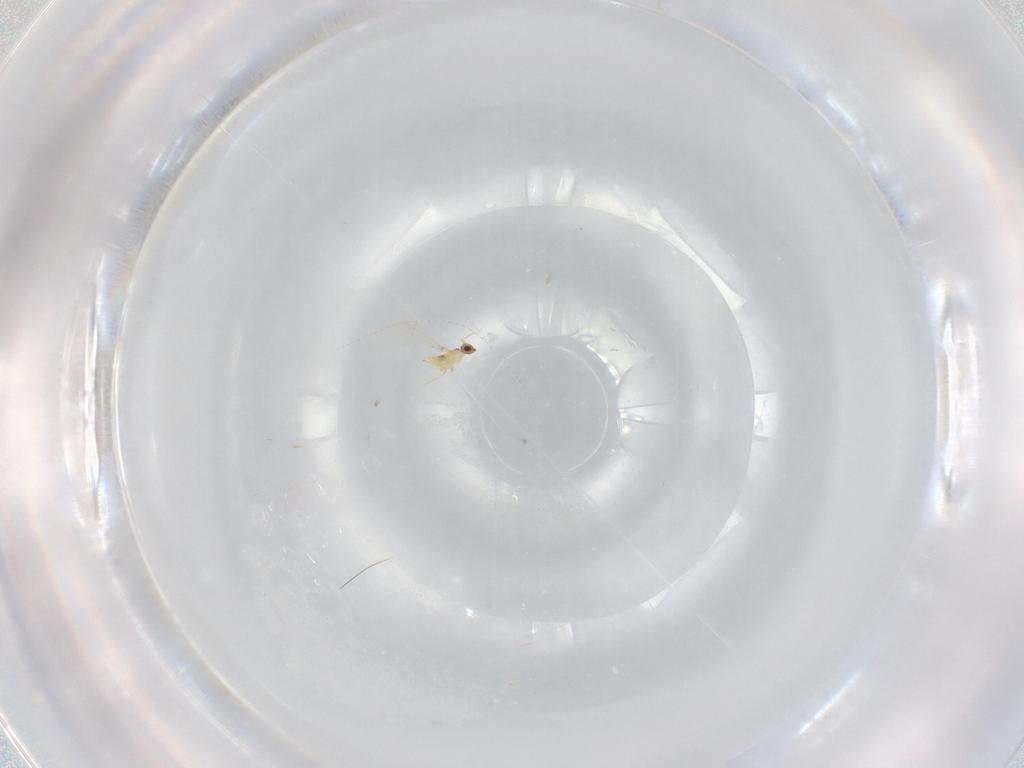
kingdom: Animalia
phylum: Arthropoda
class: Insecta
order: Hymenoptera
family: Mymaridae
